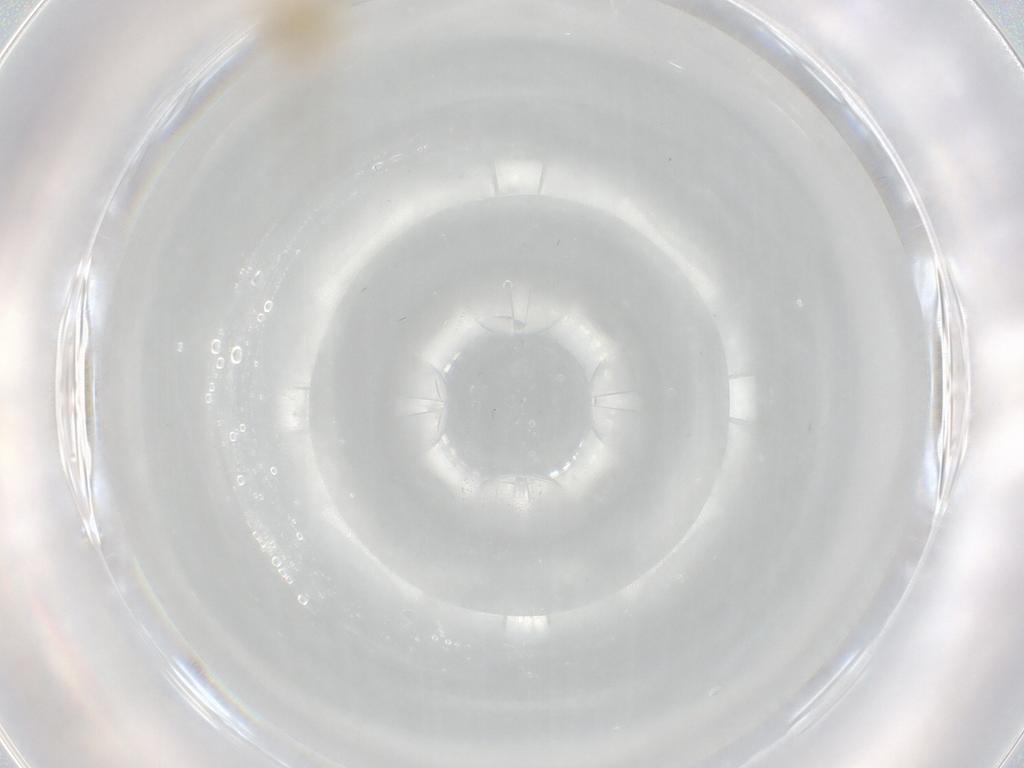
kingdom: Animalia
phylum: Arthropoda
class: Insecta
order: Diptera
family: Chironomidae
